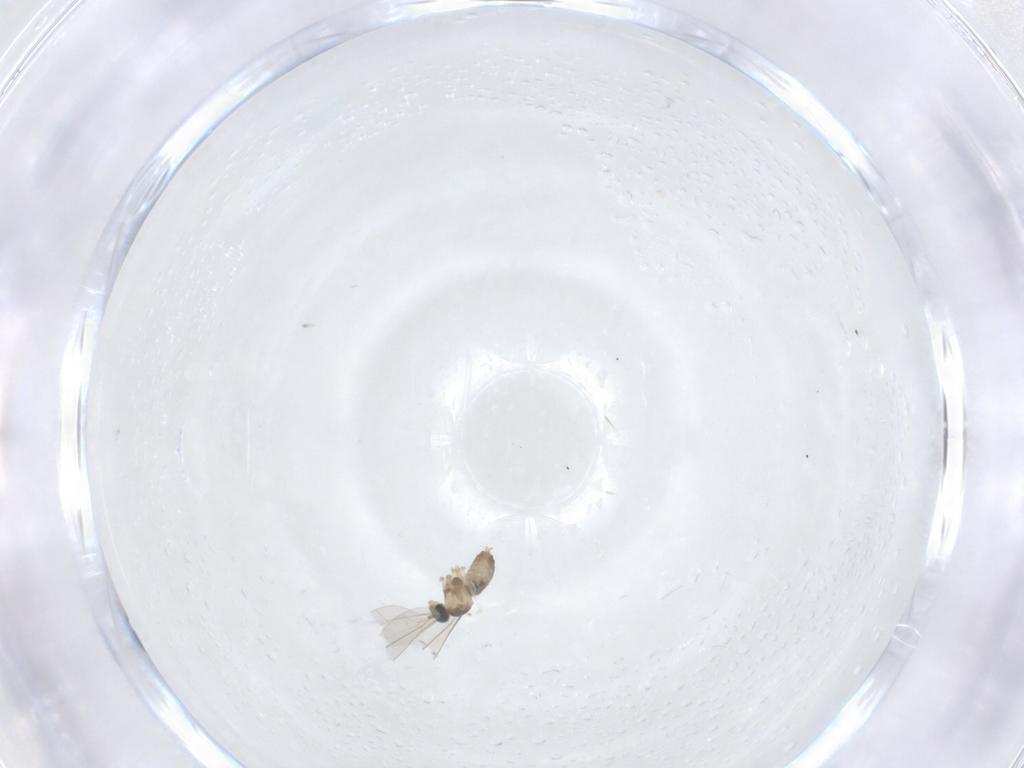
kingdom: Animalia
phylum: Arthropoda
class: Insecta
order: Diptera
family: Cecidomyiidae
